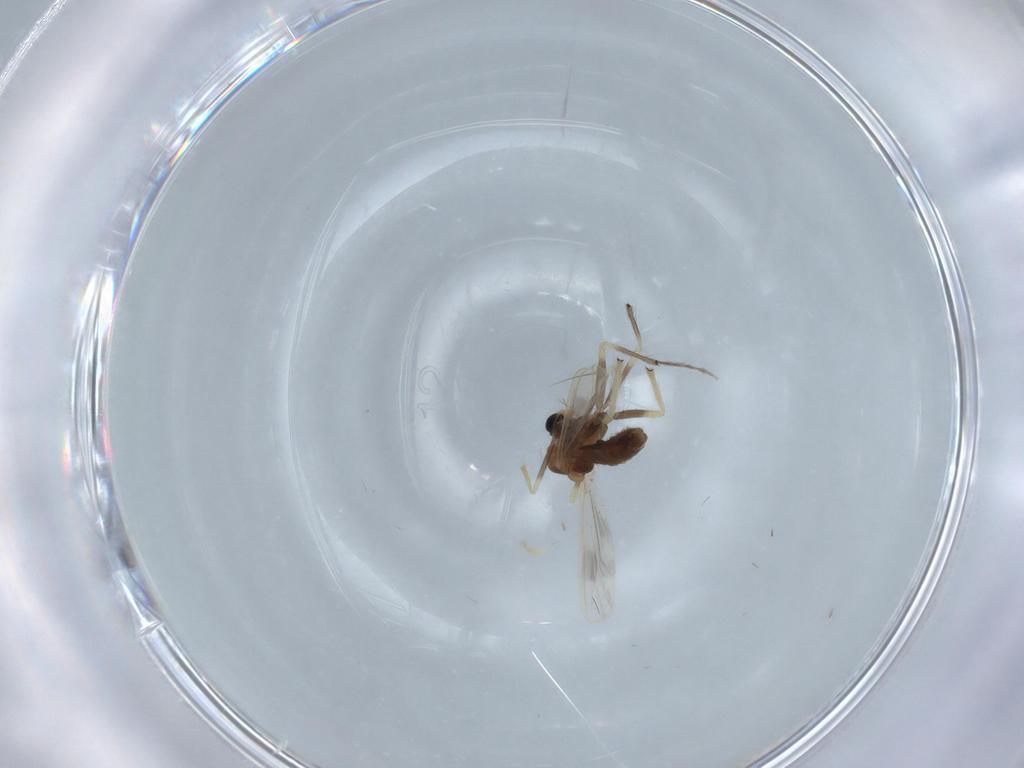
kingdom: Animalia
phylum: Arthropoda
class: Insecta
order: Diptera
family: Chironomidae
